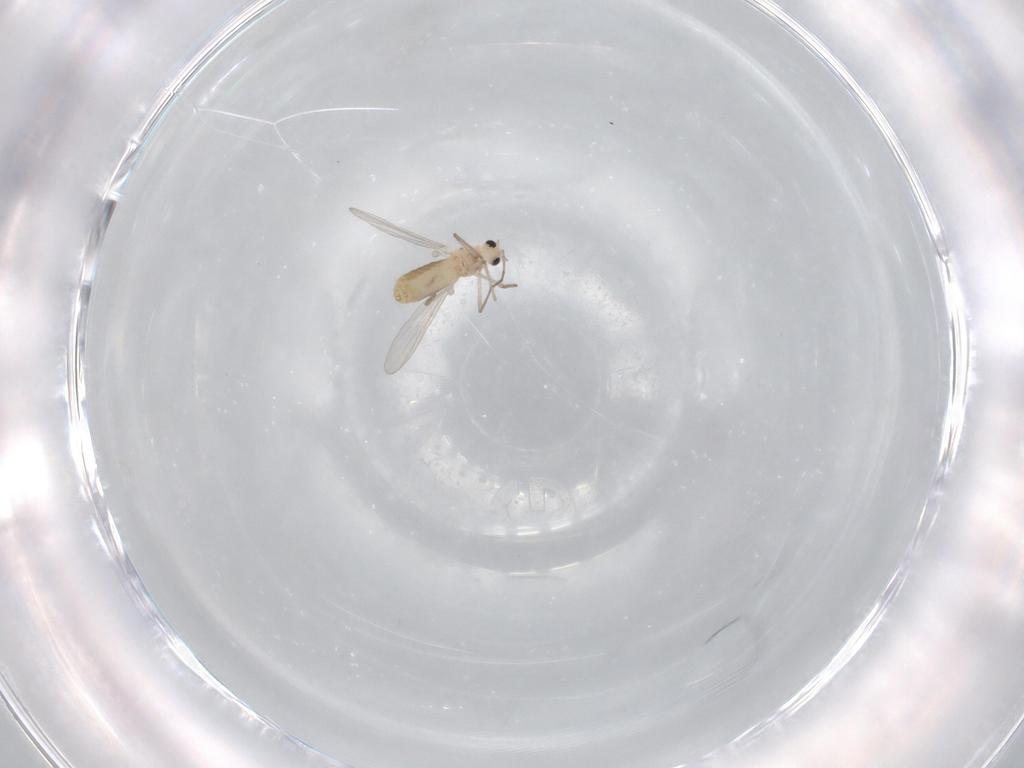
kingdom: Animalia
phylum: Arthropoda
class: Insecta
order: Diptera
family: Chironomidae
